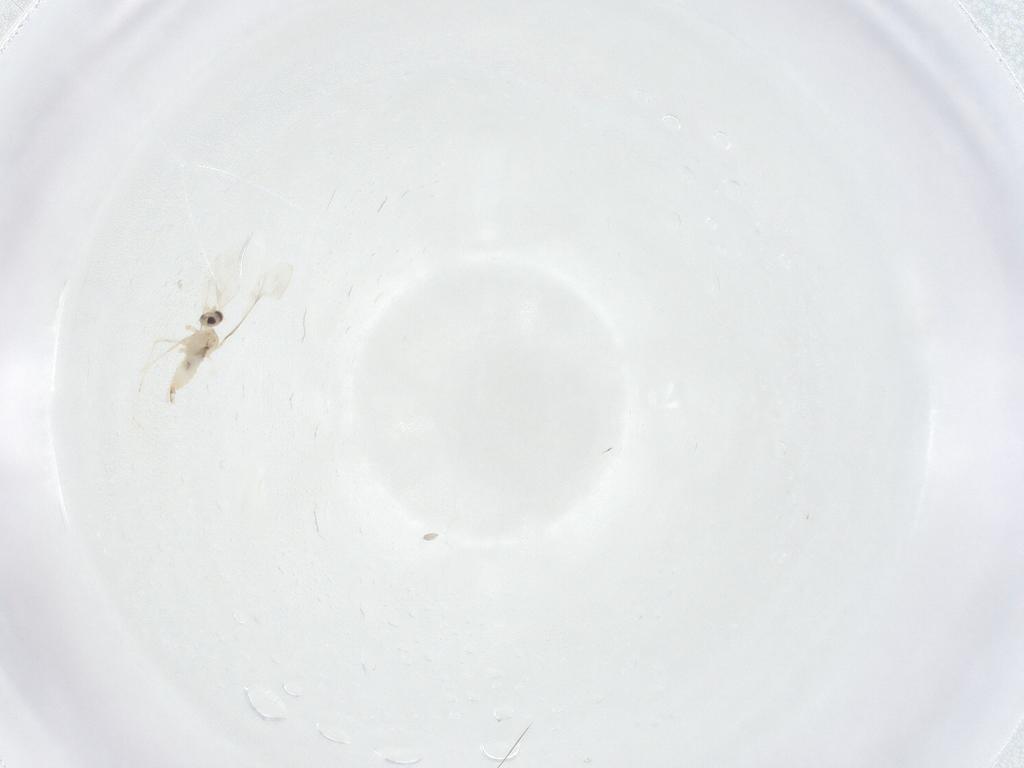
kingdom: Animalia
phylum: Arthropoda
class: Insecta
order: Diptera
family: Cecidomyiidae
